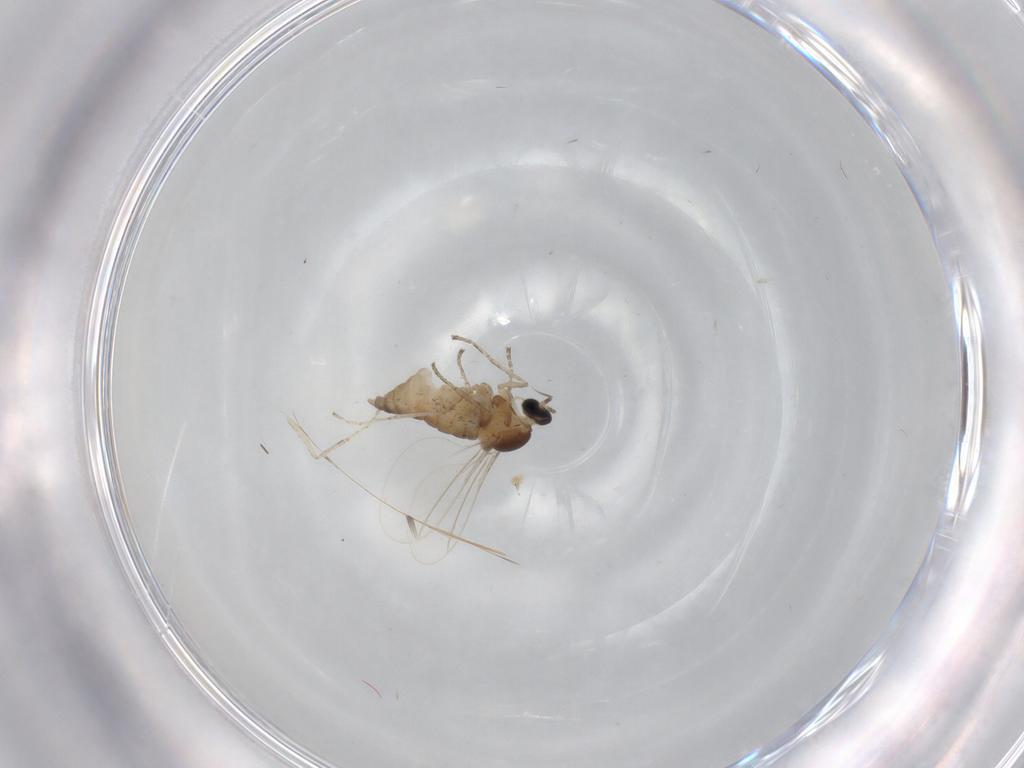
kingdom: Animalia
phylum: Arthropoda
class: Insecta
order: Diptera
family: Cecidomyiidae
